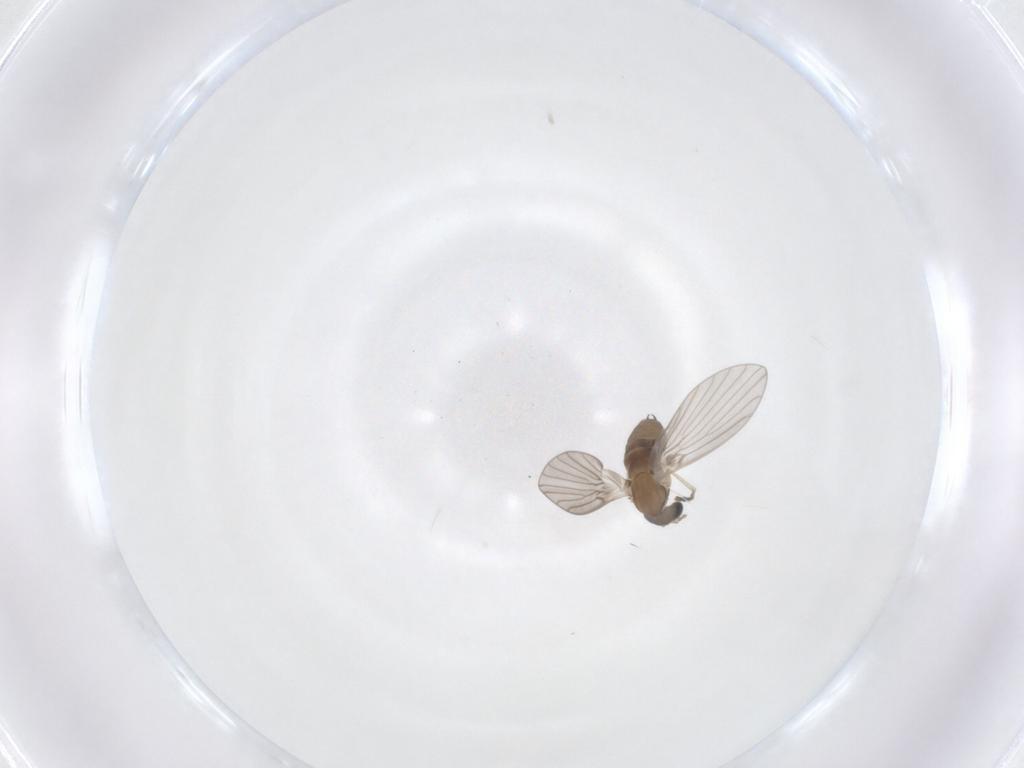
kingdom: Animalia
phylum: Arthropoda
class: Insecta
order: Diptera
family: Psychodidae
